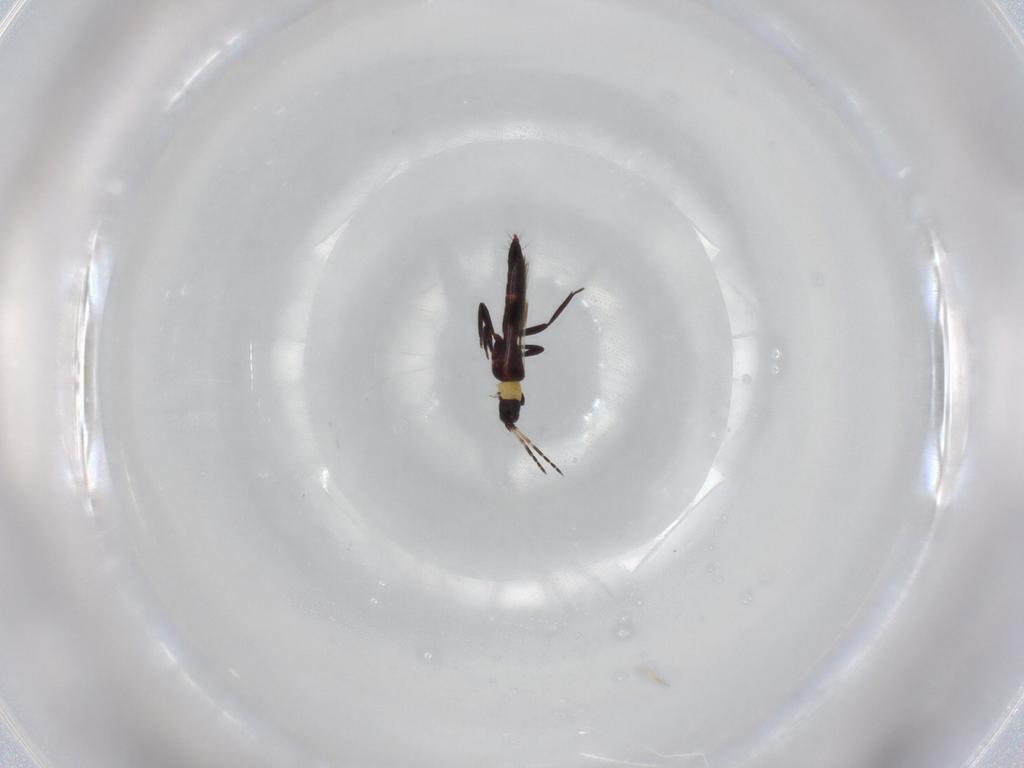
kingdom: Animalia
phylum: Arthropoda
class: Insecta
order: Thysanoptera
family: Aeolothripidae
